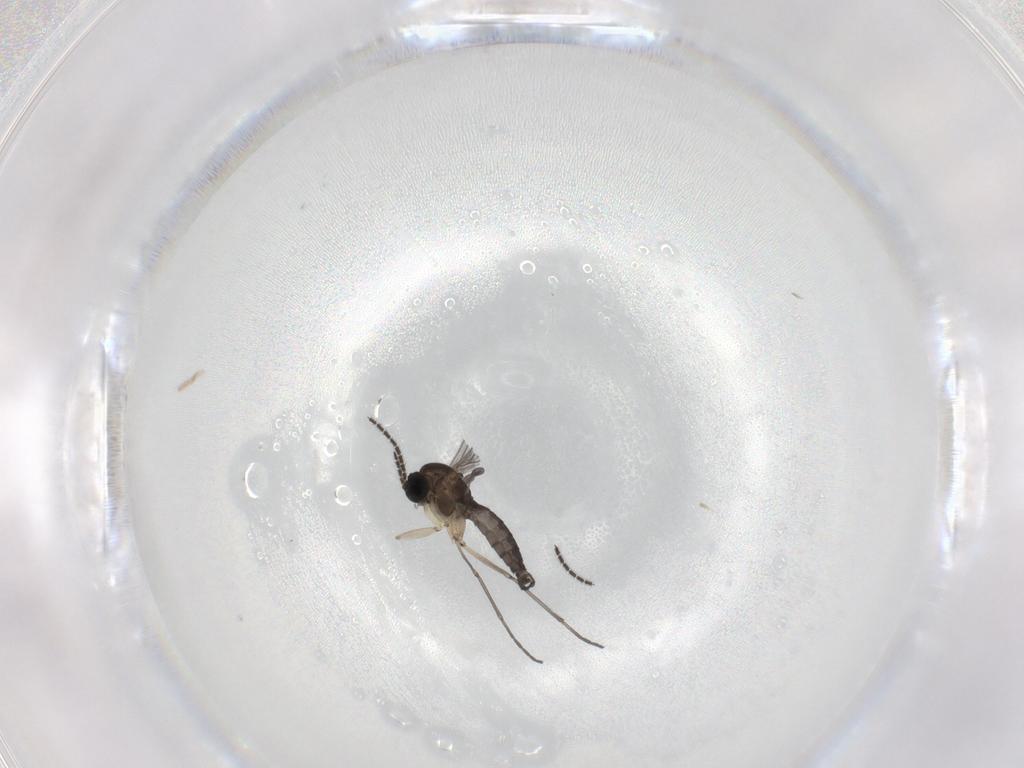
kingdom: Animalia
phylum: Arthropoda
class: Insecta
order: Diptera
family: Sciaridae
